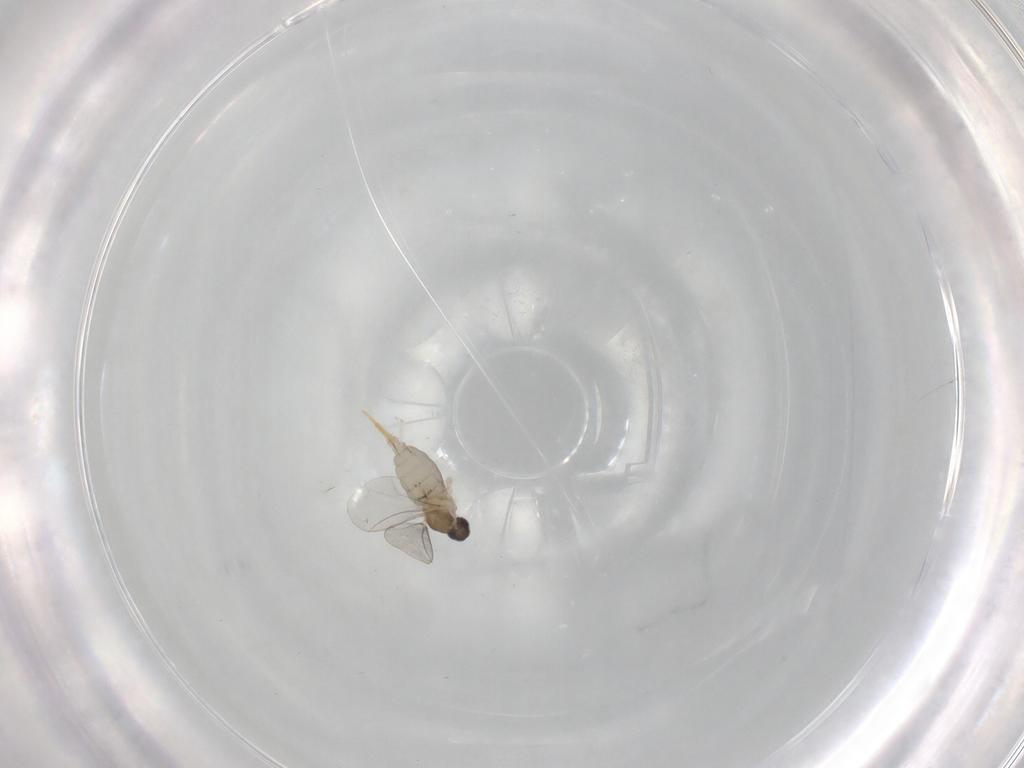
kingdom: Animalia
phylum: Arthropoda
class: Insecta
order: Diptera
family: Cecidomyiidae
